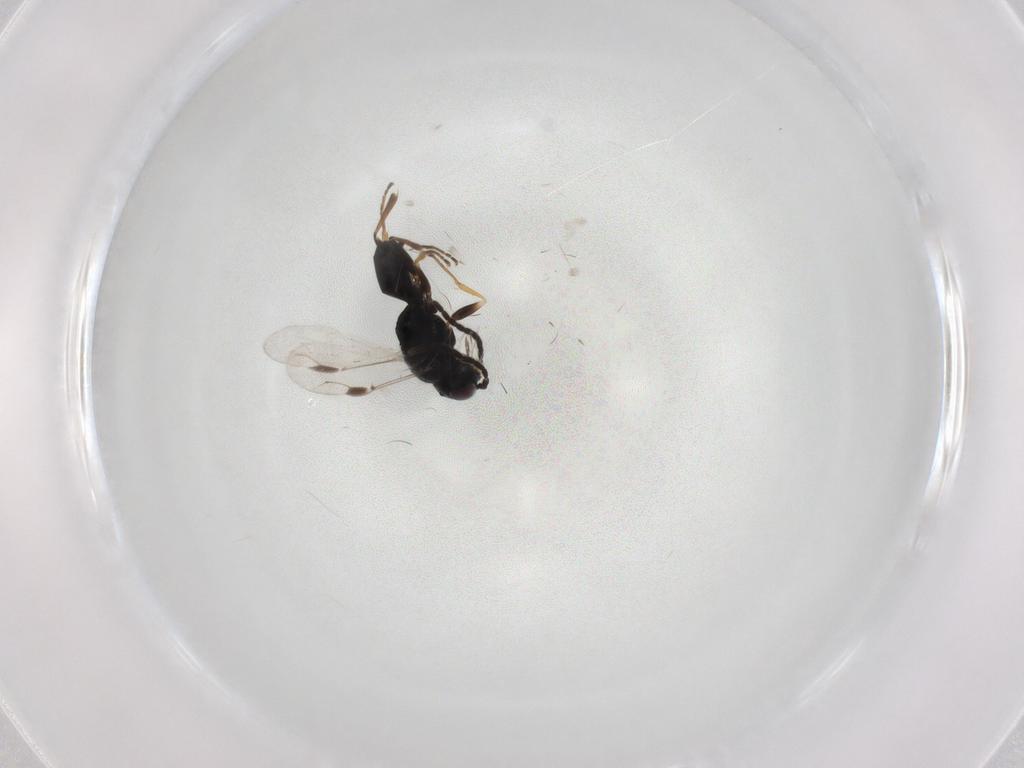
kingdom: Animalia
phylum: Arthropoda
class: Insecta
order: Hymenoptera
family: Dryinidae
